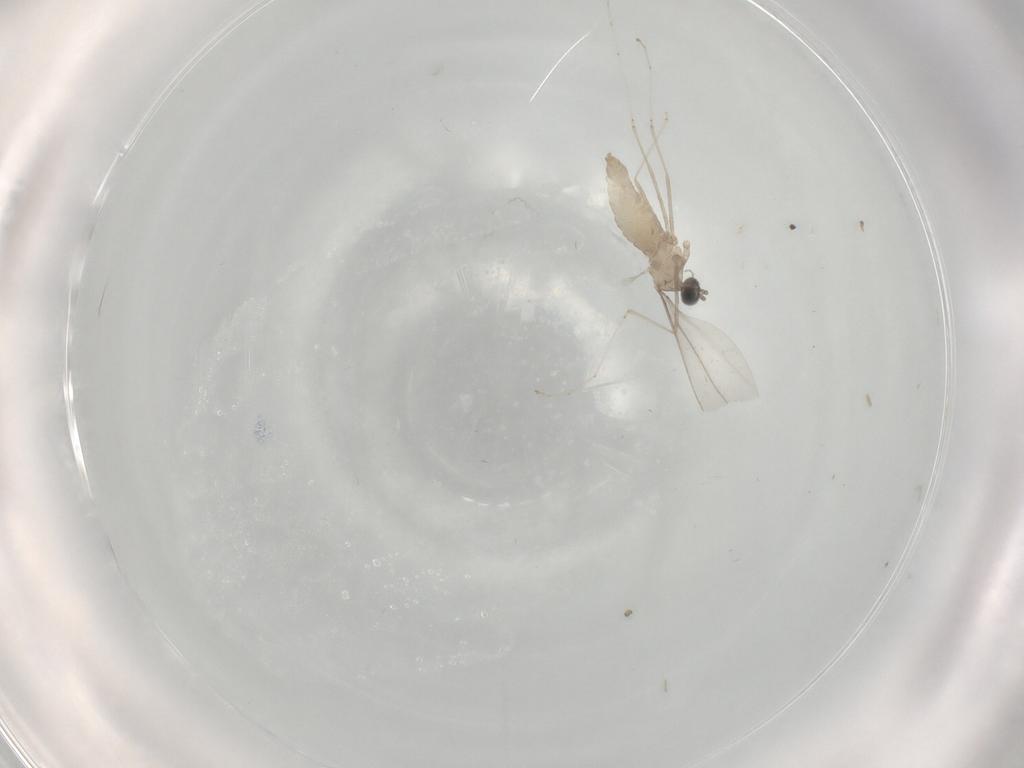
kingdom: Animalia
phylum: Arthropoda
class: Insecta
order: Diptera
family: Cecidomyiidae
